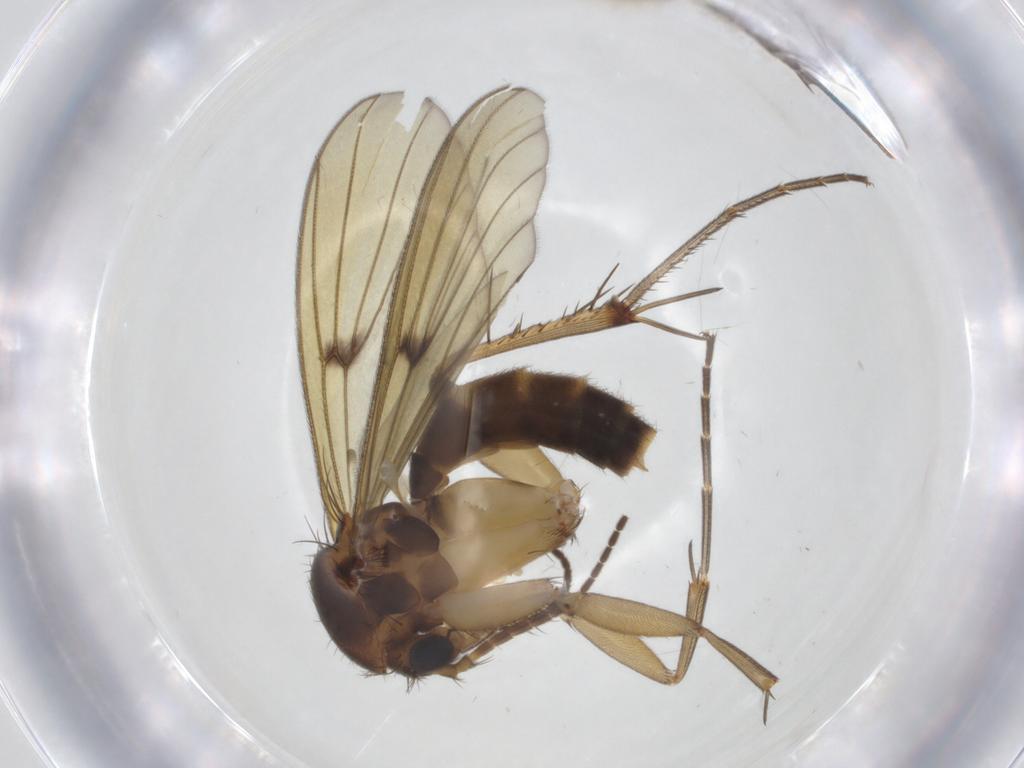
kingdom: Animalia
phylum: Arthropoda
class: Insecta
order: Diptera
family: Mycetophilidae
